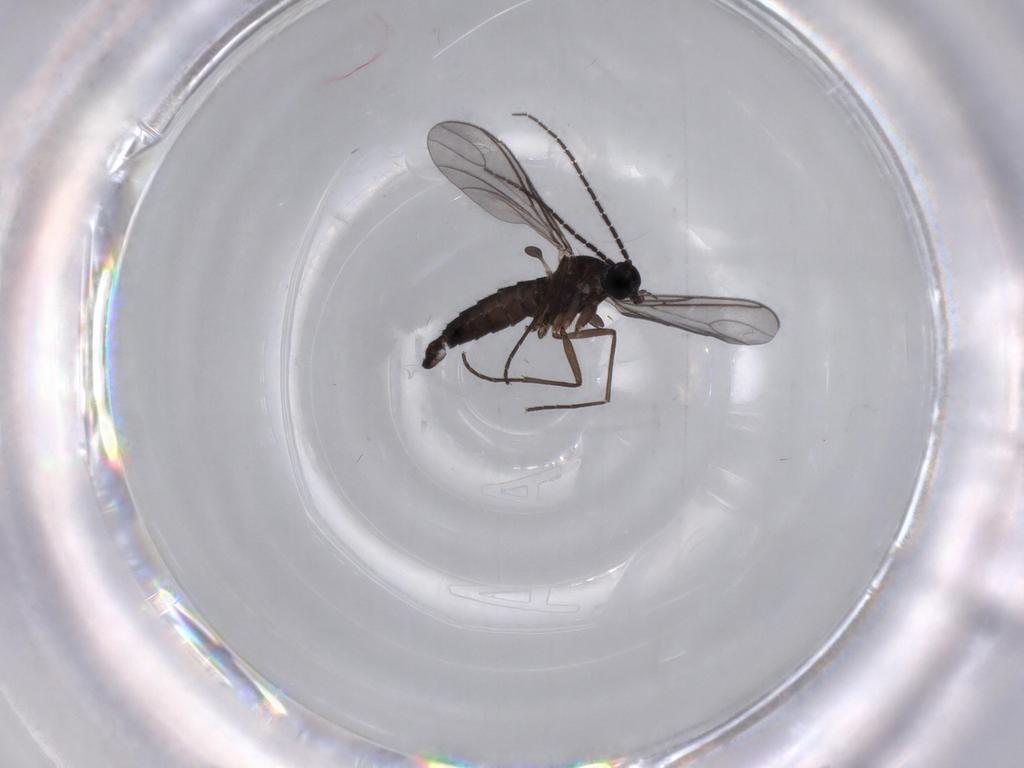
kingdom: Animalia
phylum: Arthropoda
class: Insecta
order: Diptera
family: Sciaridae
